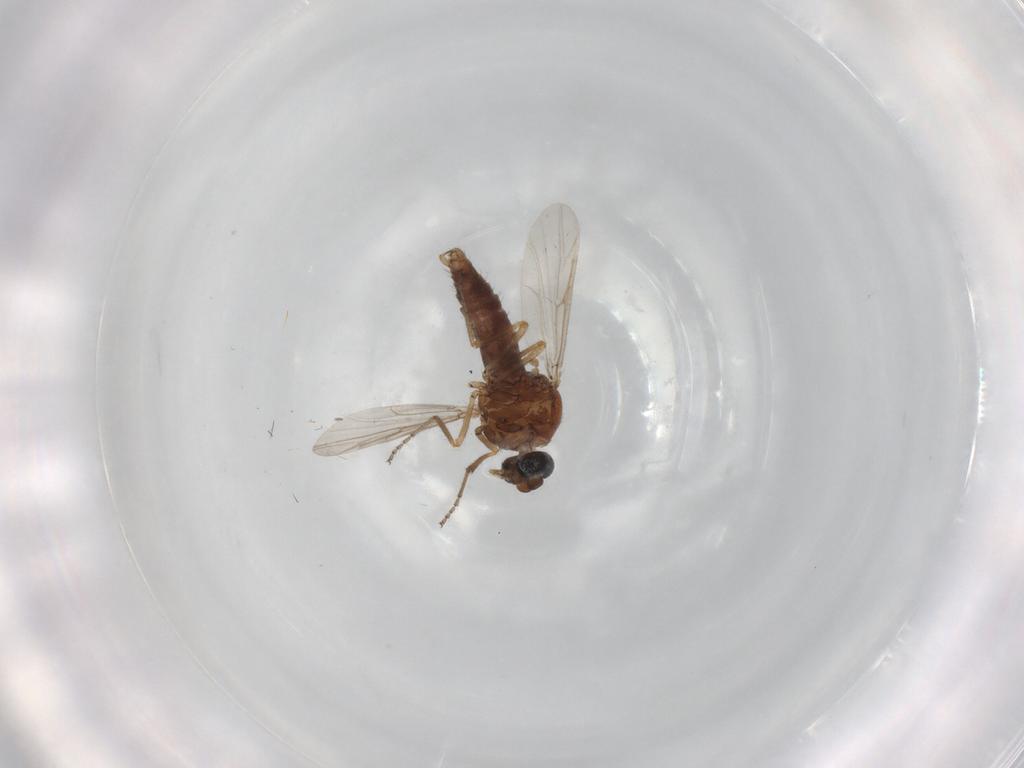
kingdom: Animalia
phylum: Arthropoda
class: Insecta
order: Diptera
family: Ceratopogonidae
